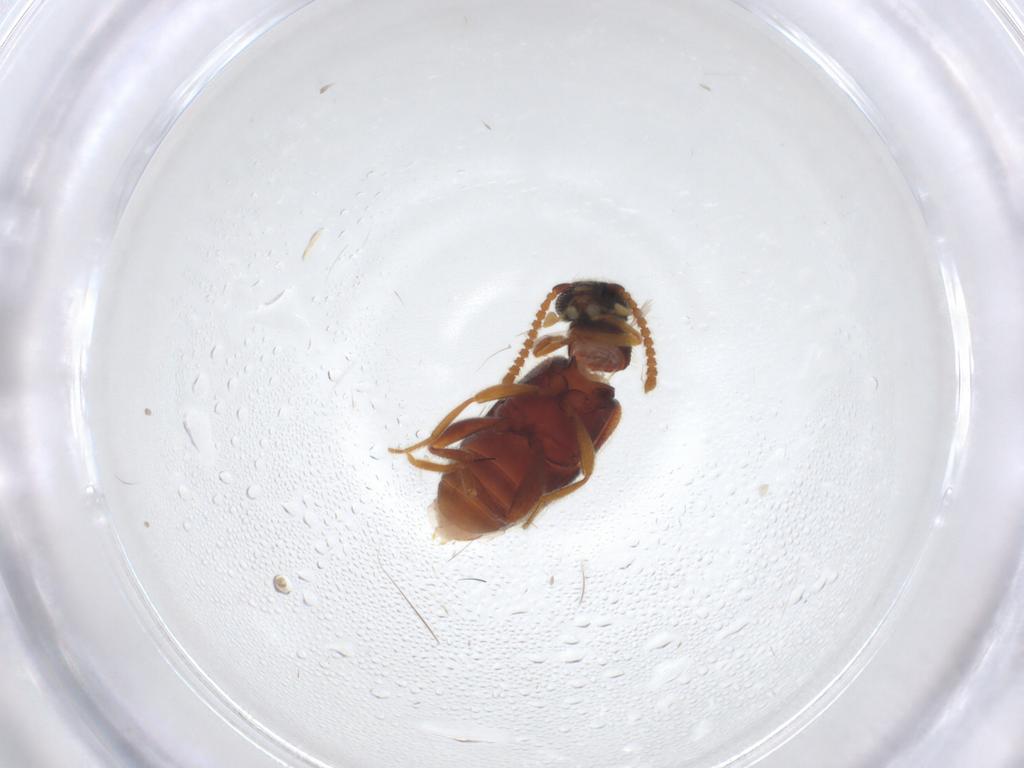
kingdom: Animalia
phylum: Arthropoda
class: Insecta
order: Coleoptera
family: Aderidae
